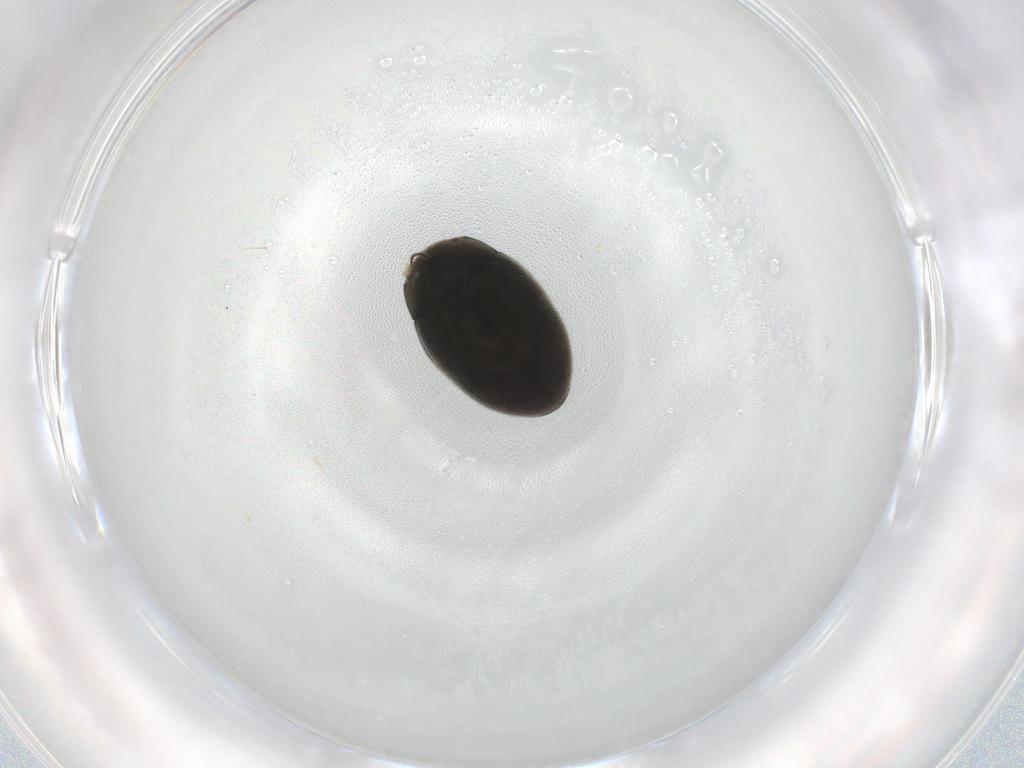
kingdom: Animalia
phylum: Arthropoda
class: Insecta
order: Coleoptera
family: Limnichidae
